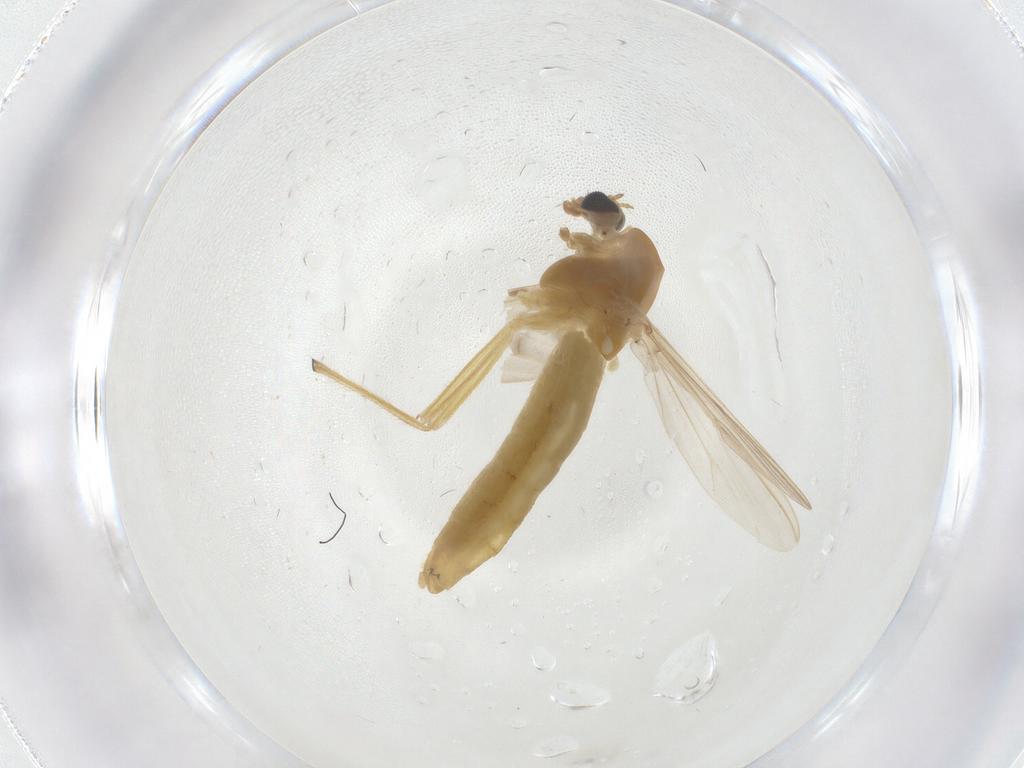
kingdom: Animalia
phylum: Arthropoda
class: Insecta
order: Diptera
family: Chironomidae
